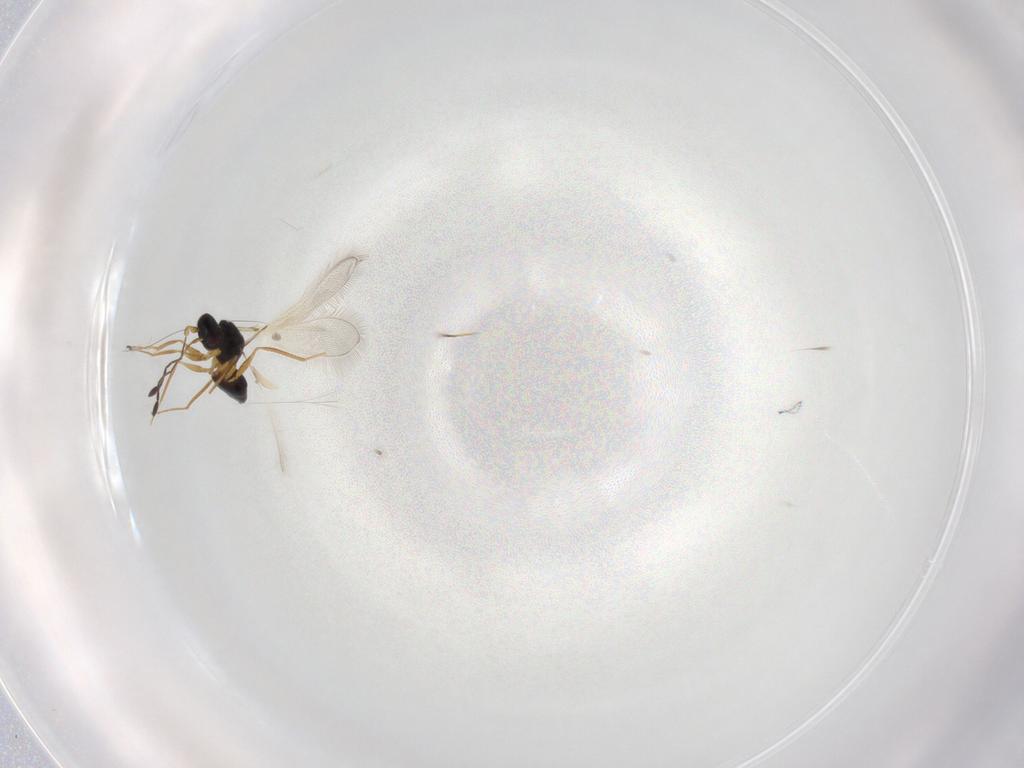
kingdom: Animalia
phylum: Arthropoda
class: Insecta
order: Hymenoptera
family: Mymaridae
